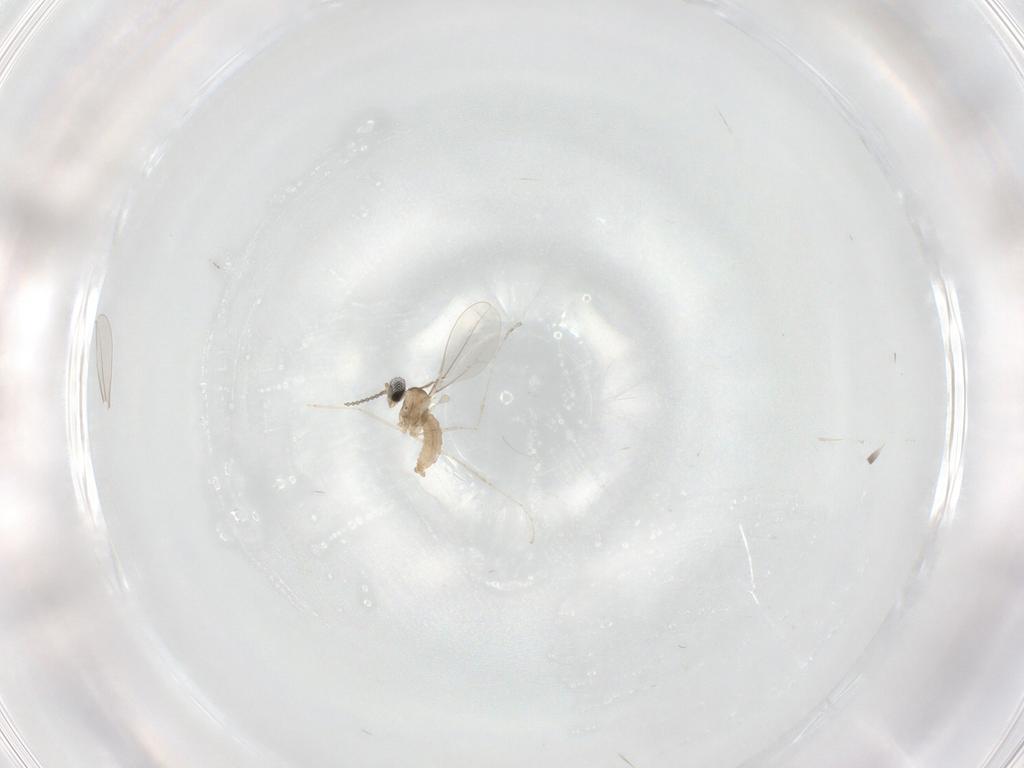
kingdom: Animalia
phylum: Arthropoda
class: Insecta
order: Diptera
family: Cecidomyiidae
